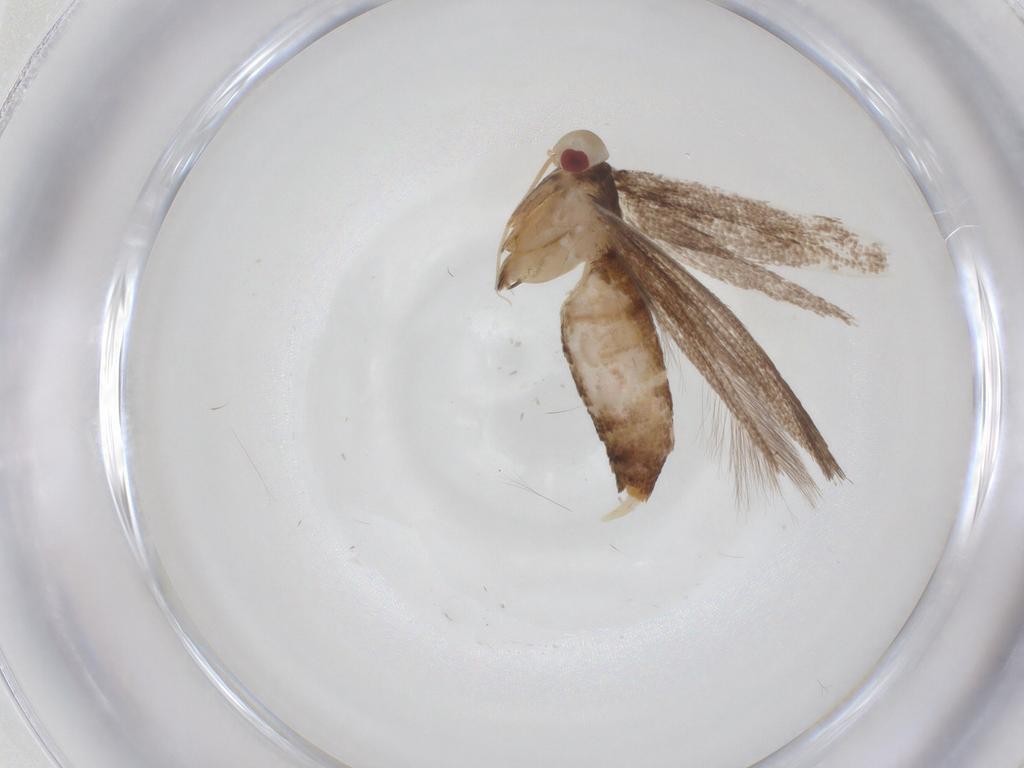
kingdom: Animalia
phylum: Arthropoda
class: Insecta
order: Lepidoptera
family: Cosmopterigidae
